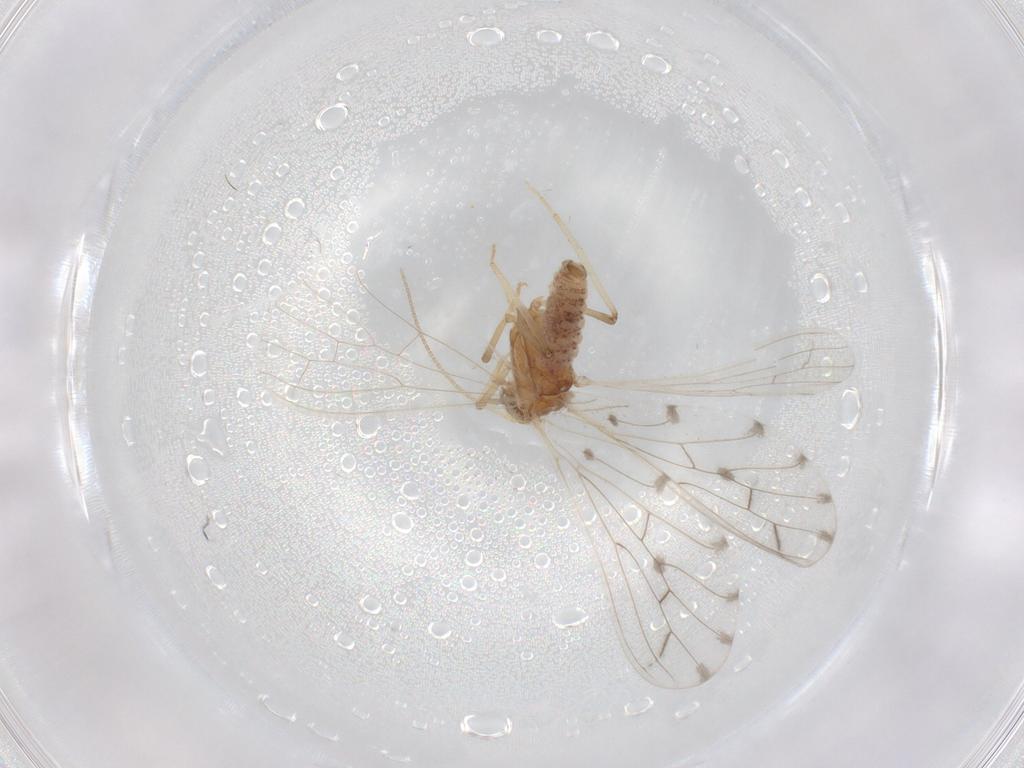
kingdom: Animalia
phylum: Arthropoda
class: Insecta
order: Neuroptera
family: Coniopterygidae
